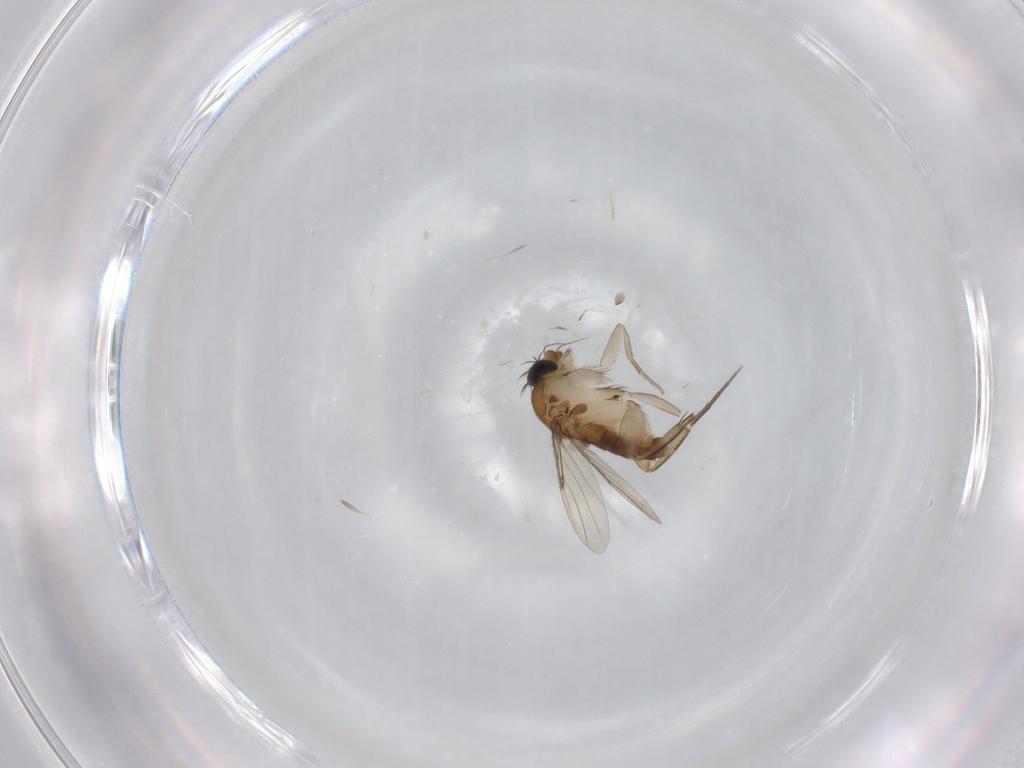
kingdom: Animalia
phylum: Arthropoda
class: Insecta
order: Diptera
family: Phoridae
